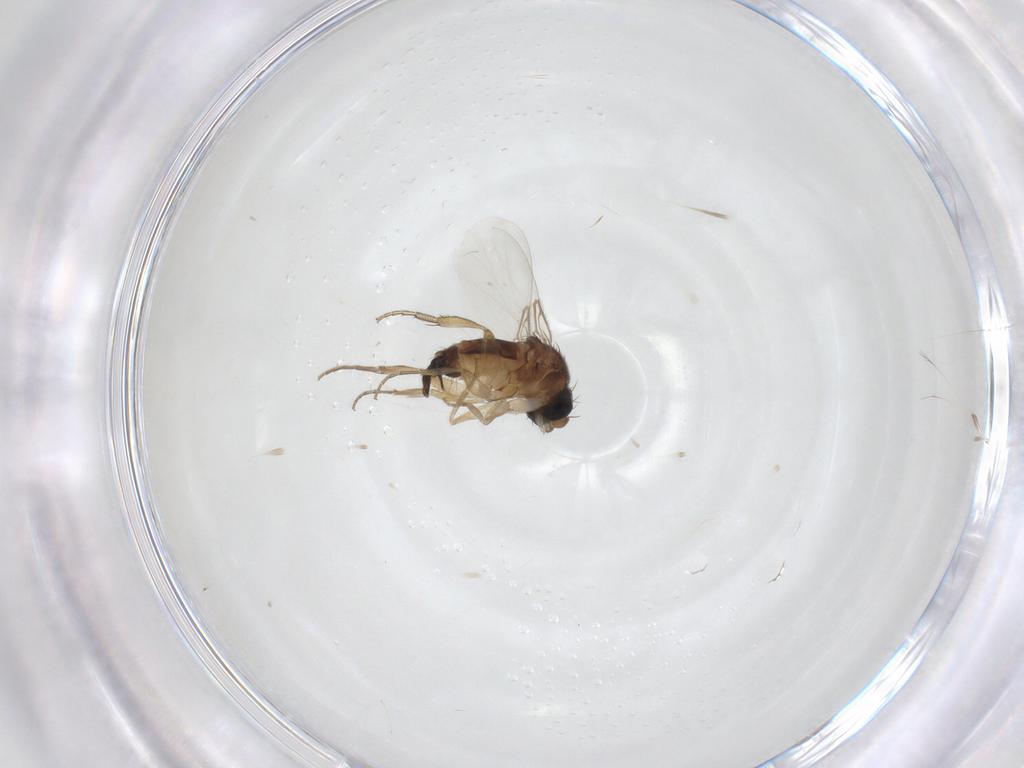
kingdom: Animalia
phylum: Arthropoda
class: Insecta
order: Diptera
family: Phoridae
